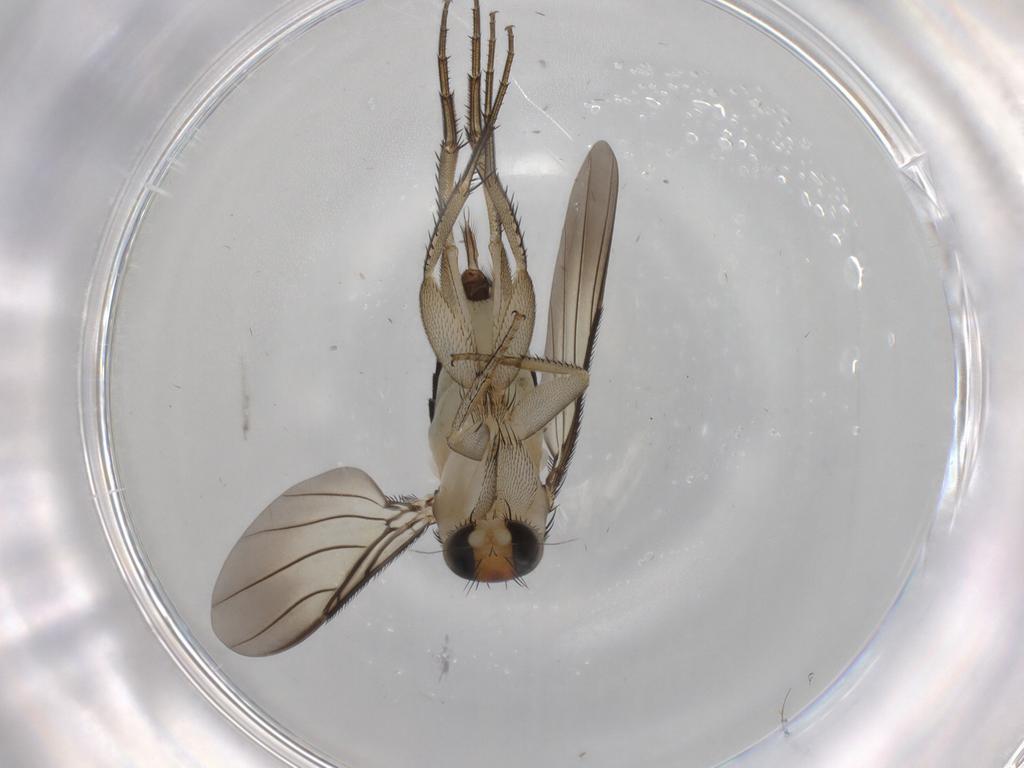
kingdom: Animalia
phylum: Arthropoda
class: Insecta
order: Diptera
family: Phoridae
